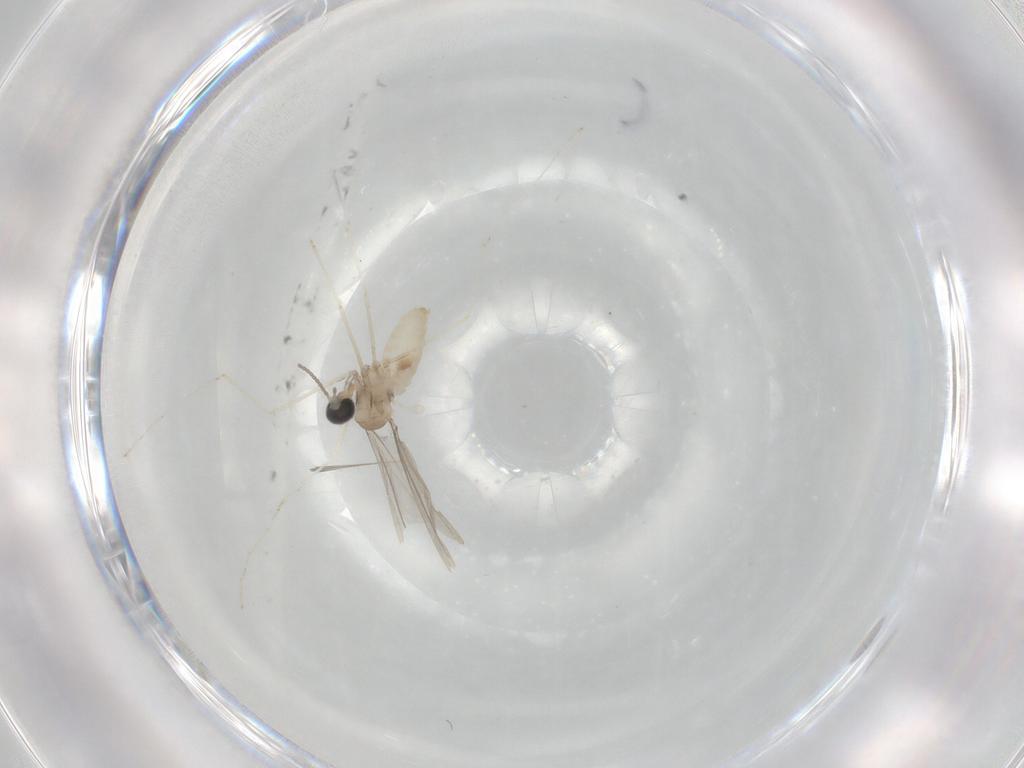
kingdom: Animalia
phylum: Arthropoda
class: Insecta
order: Diptera
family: Cecidomyiidae
